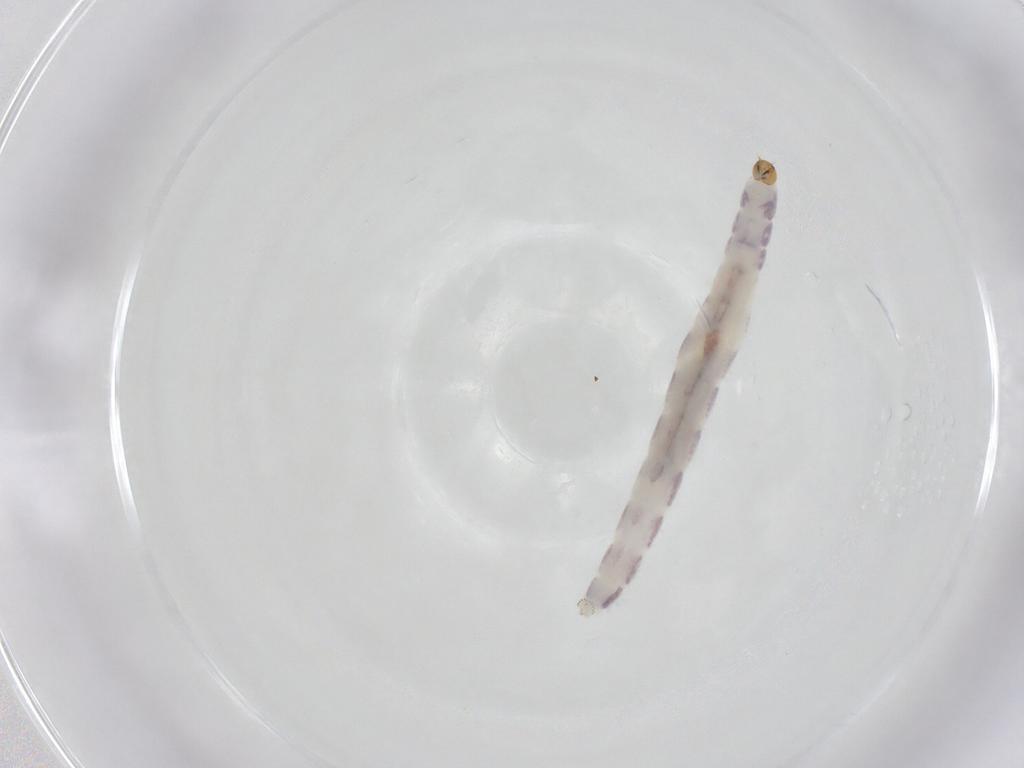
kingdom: Animalia
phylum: Arthropoda
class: Insecta
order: Diptera
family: Chironomidae
